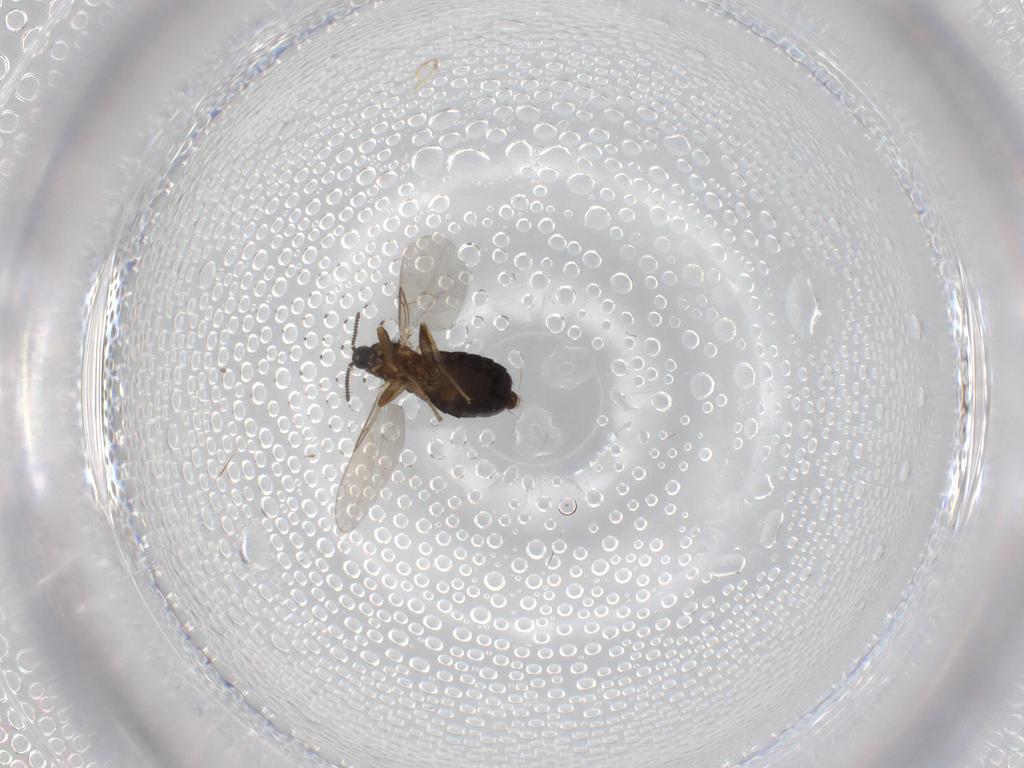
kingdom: Animalia
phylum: Arthropoda
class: Insecta
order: Diptera
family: Scatopsidae
